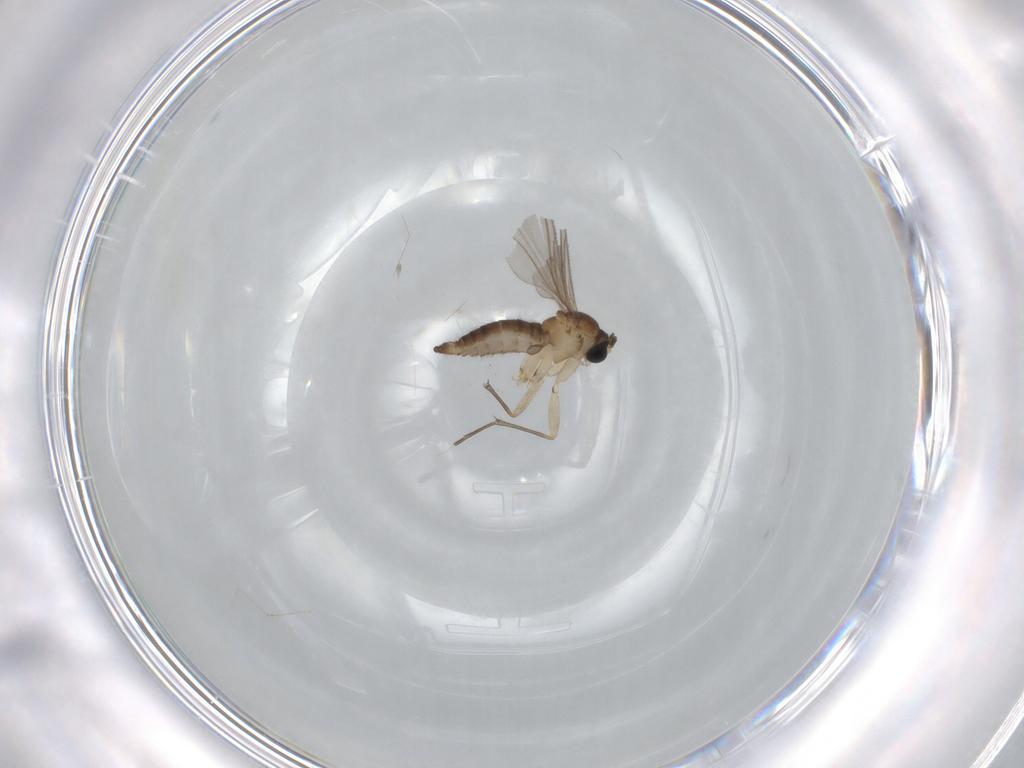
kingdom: Animalia
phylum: Arthropoda
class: Insecta
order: Diptera
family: Sciaridae
